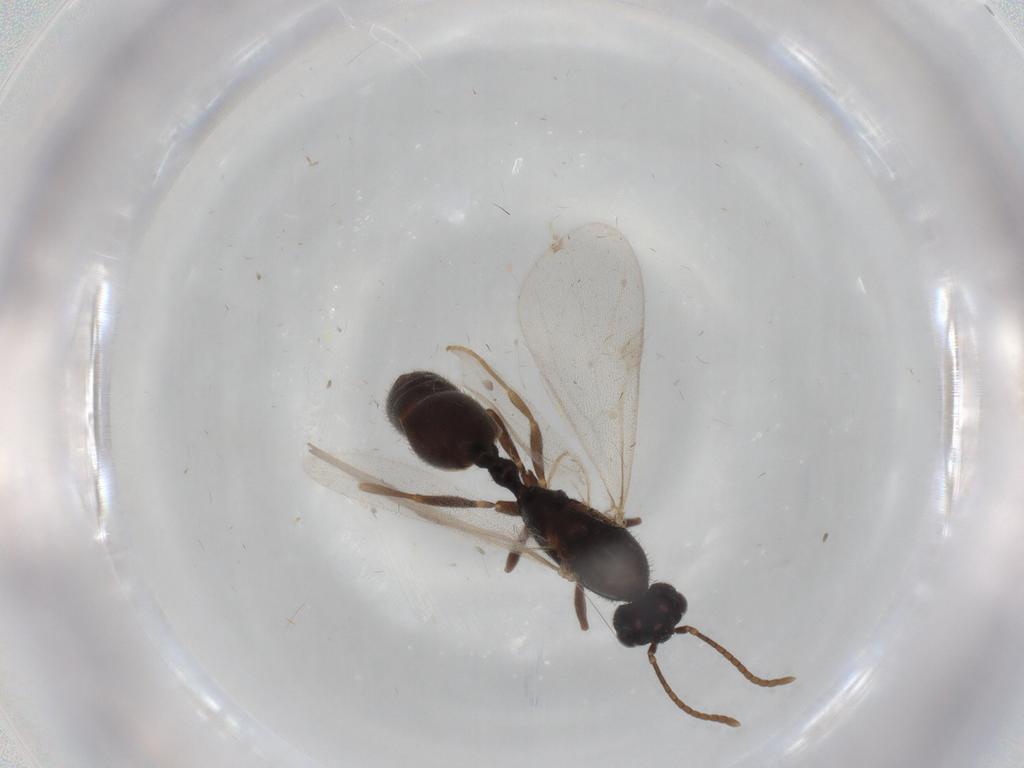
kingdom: Animalia
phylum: Arthropoda
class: Insecta
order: Hymenoptera
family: Formicidae
